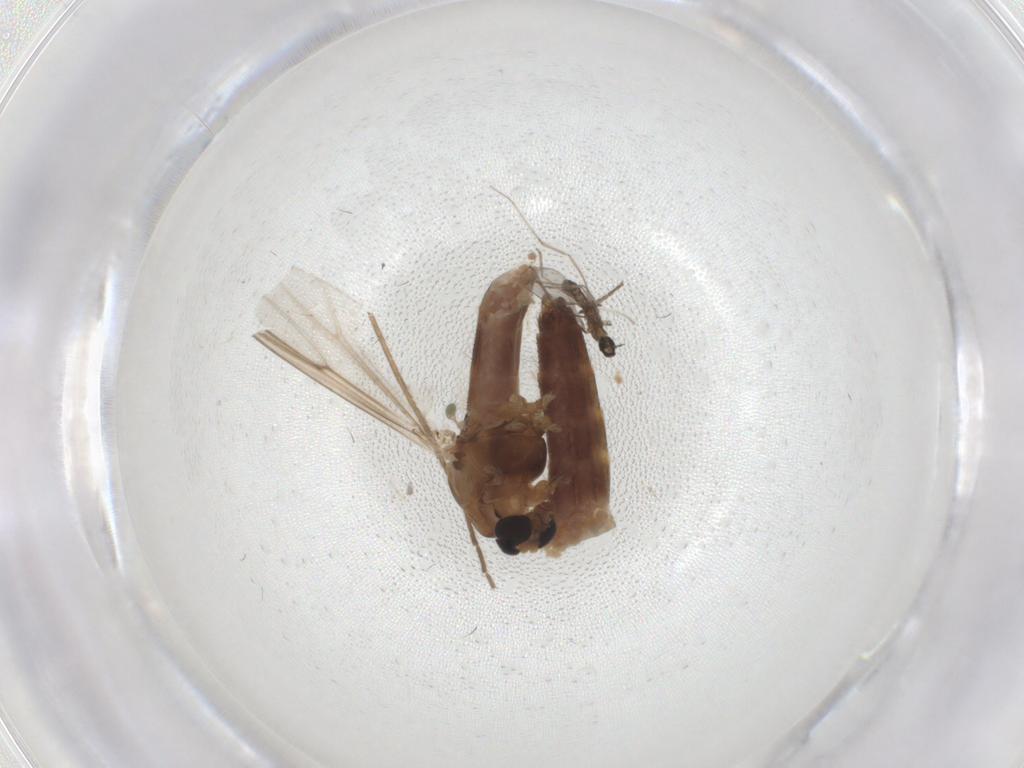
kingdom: Animalia
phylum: Arthropoda
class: Insecta
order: Diptera
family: Chironomidae
